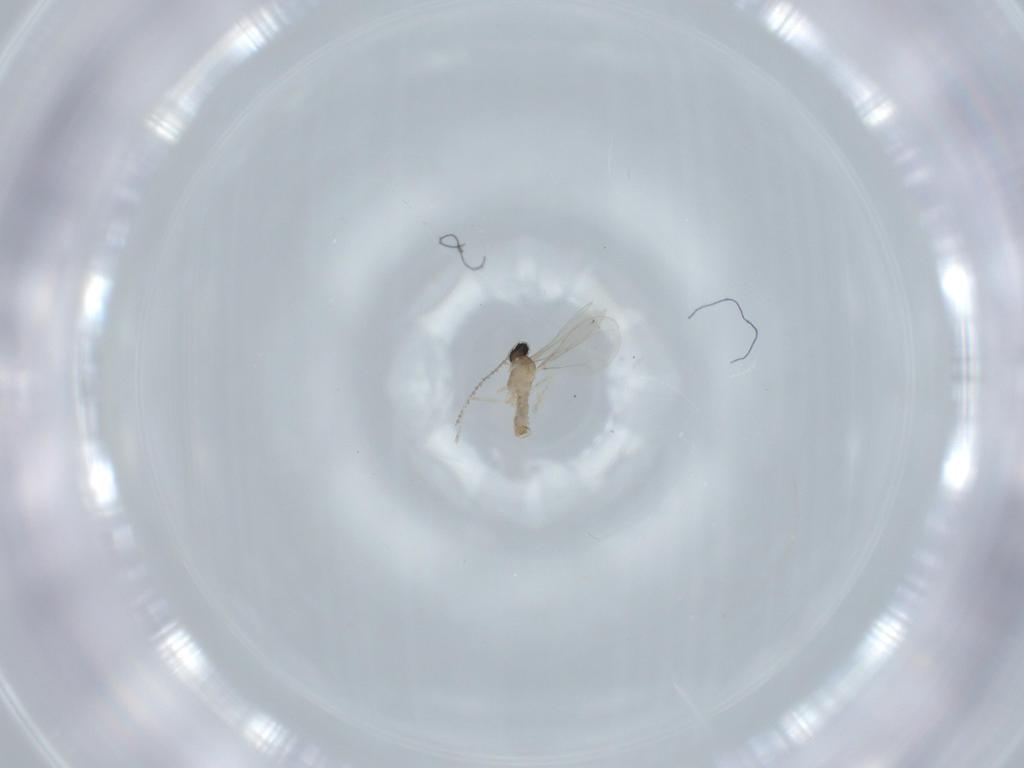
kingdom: Animalia
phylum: Arthropoda
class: Insecta
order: Diptera
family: Cecidomyiidae
